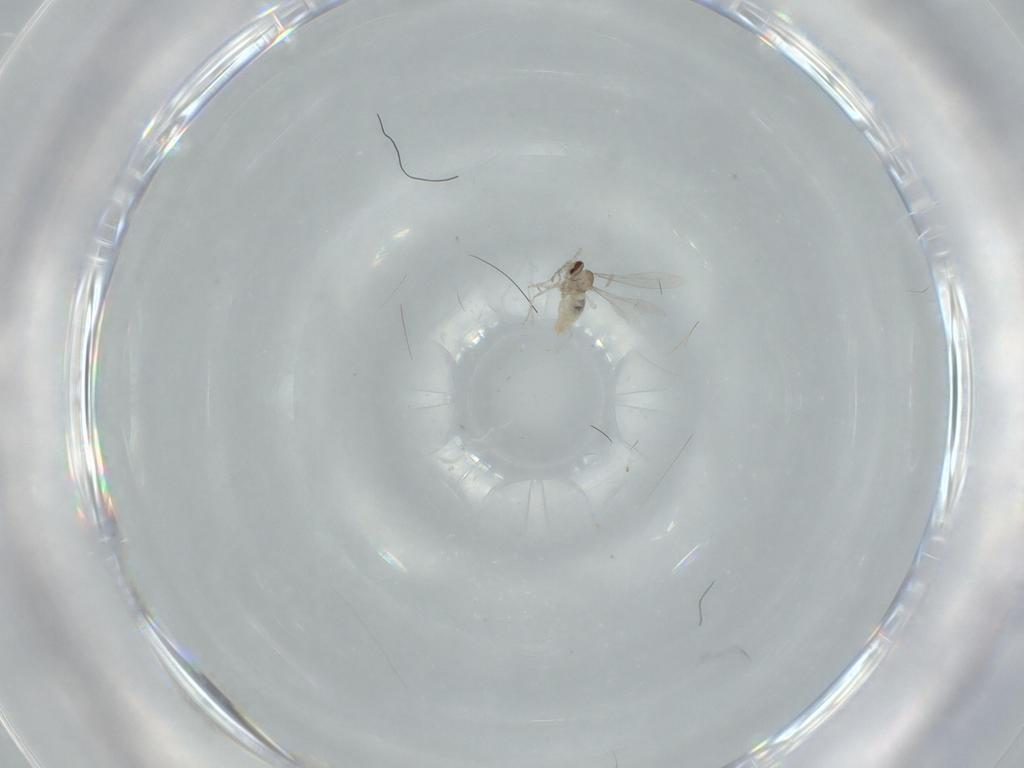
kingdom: Animalia
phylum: Arthropoda
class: Insecta
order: Diptera
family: Cecidomyiidae
